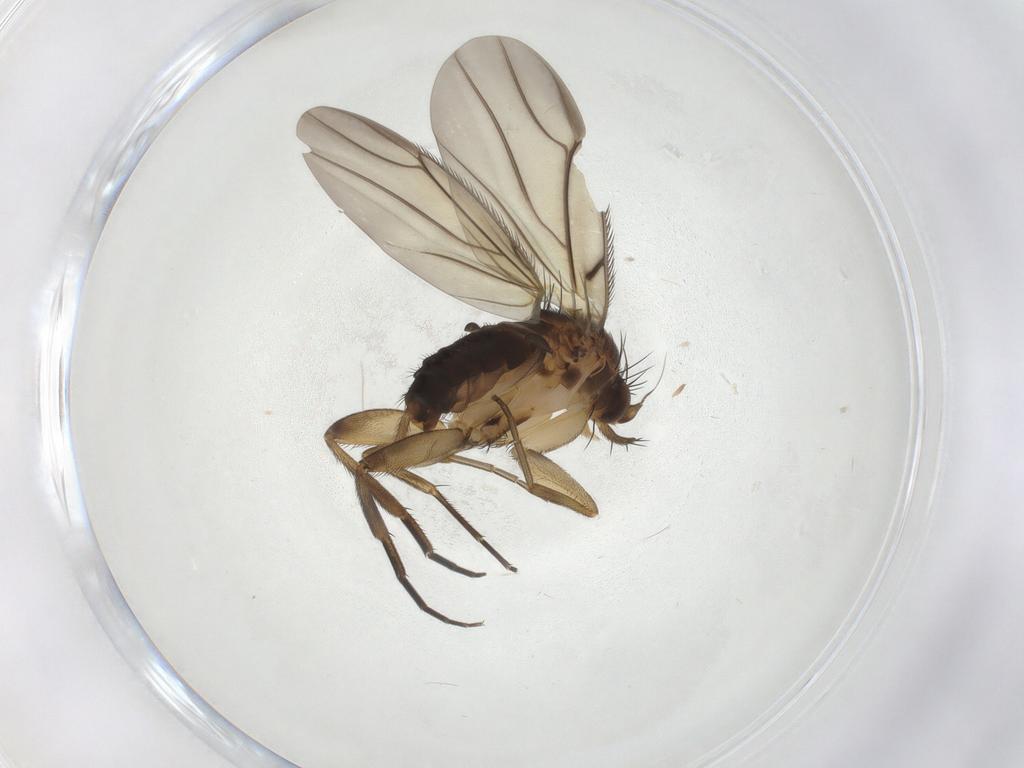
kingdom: Animalia
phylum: Arthropoda
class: Insecta
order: Diptera
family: Phoridae
